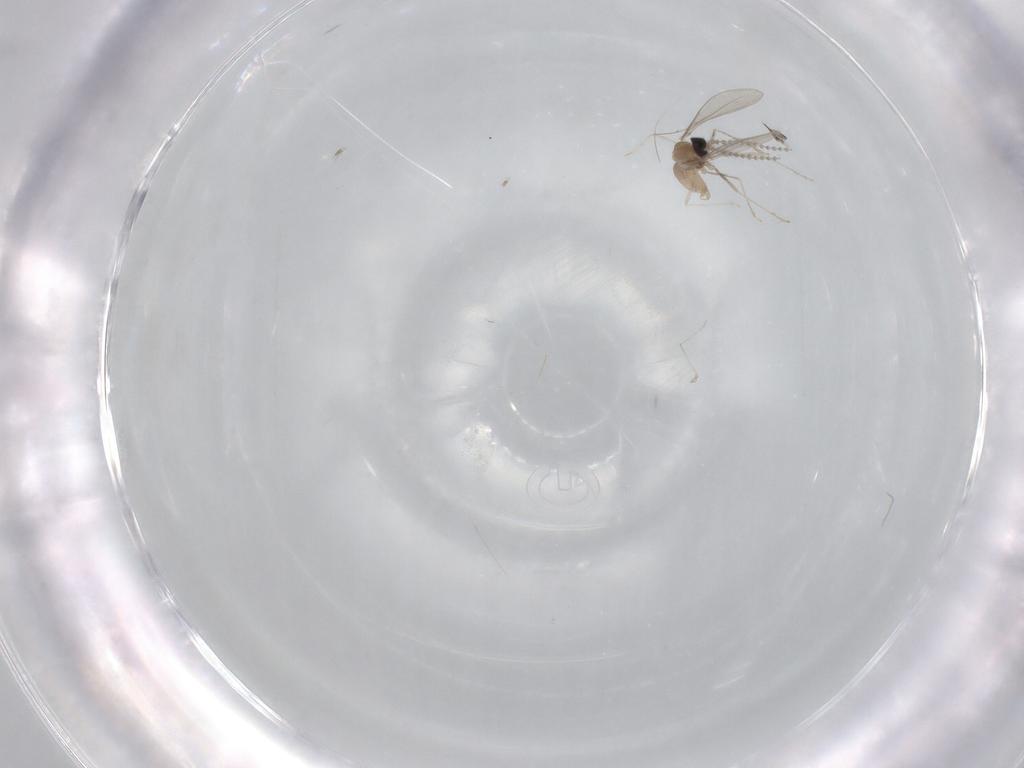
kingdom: Animalia
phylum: Arthropoda
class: Insecta
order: Diptera
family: Cecidomyiidae
